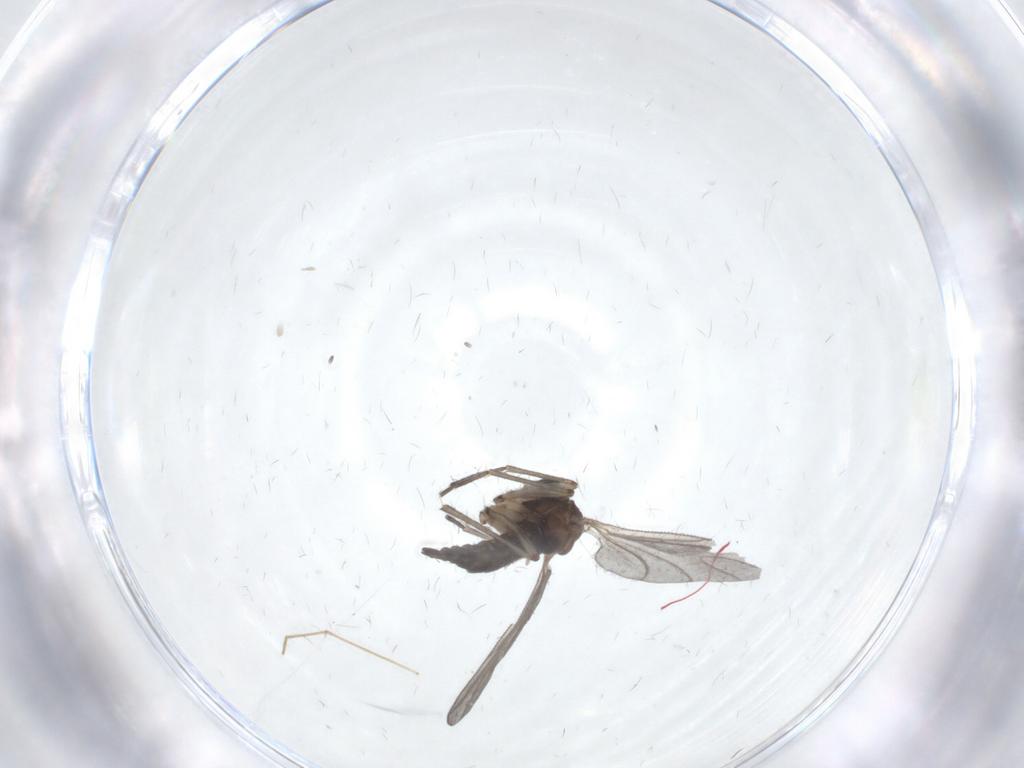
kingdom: Animalia
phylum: Arthropoda
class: Insecta
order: Diptera
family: Sciaridae
